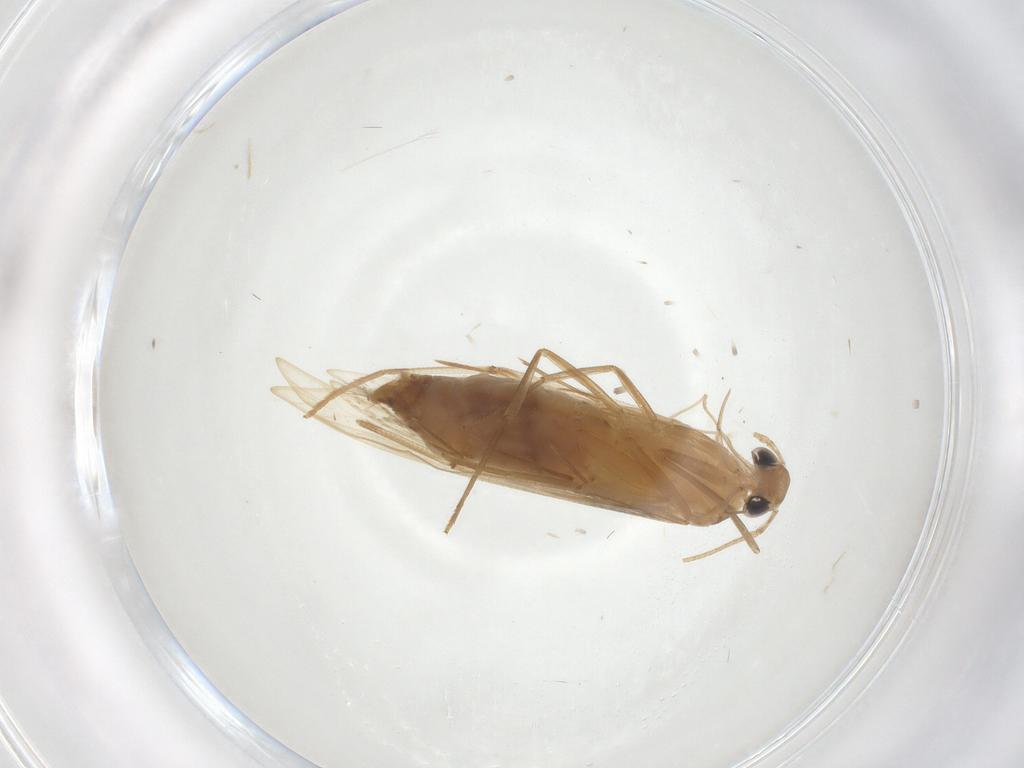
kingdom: Animalia
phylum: Arthropoda
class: Insecta
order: Lepidoptera
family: Erebidae
